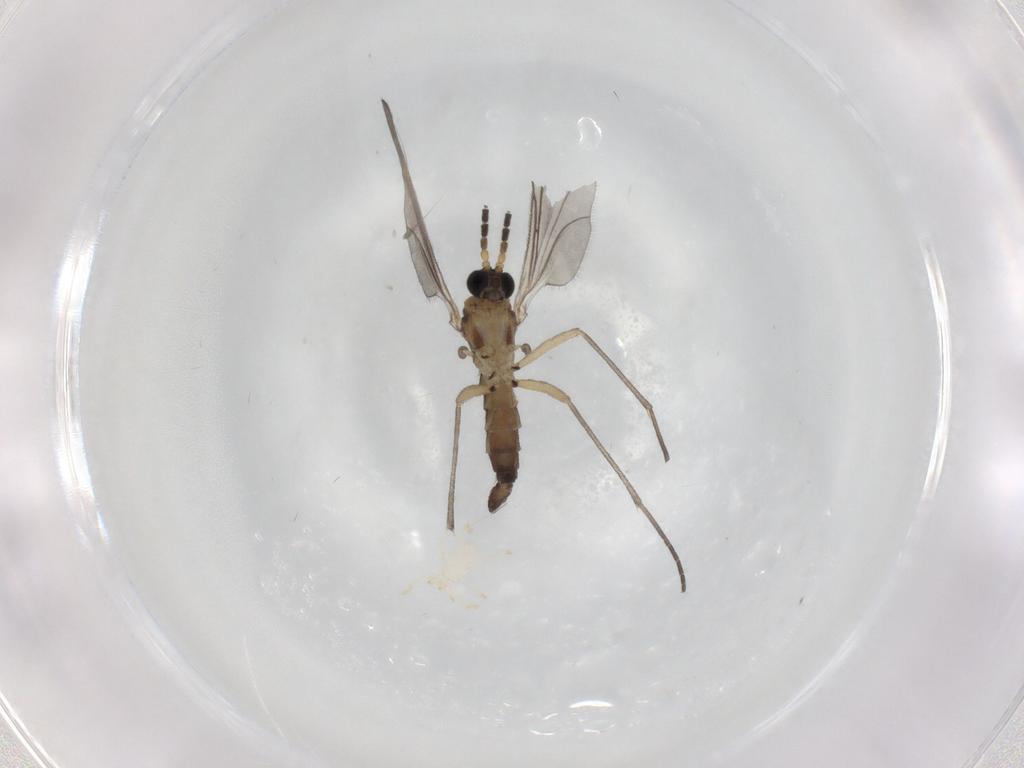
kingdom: Animalia
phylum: Arthropoda
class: Insecta
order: Diptera
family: Sciaridae
